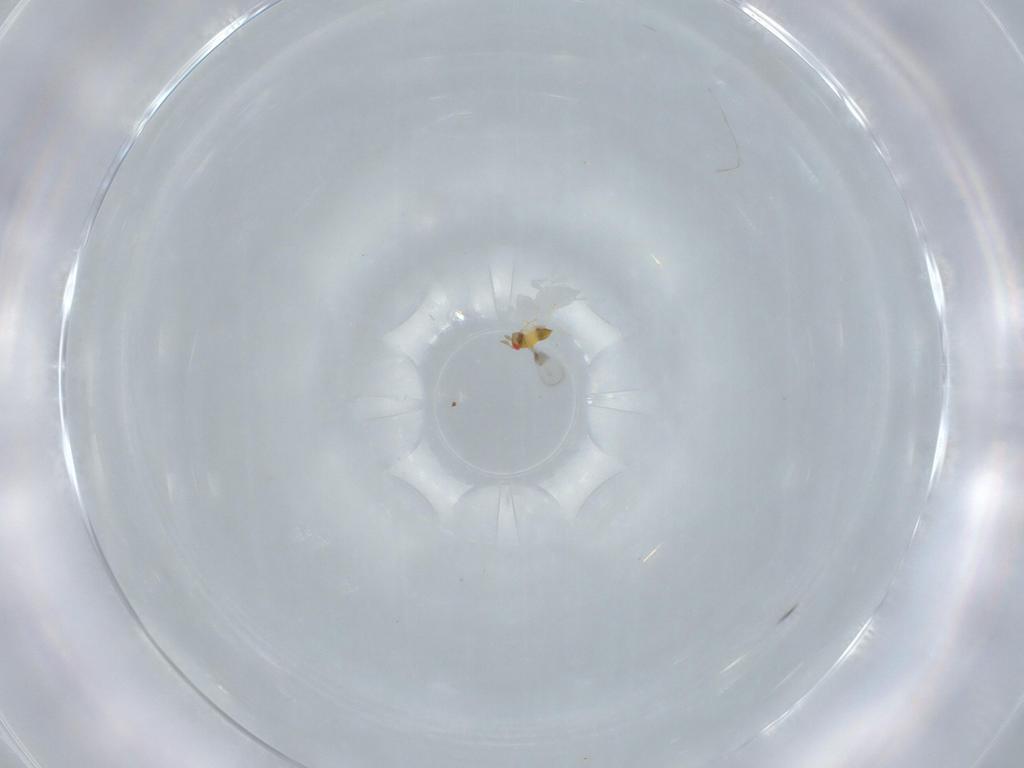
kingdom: Animalia
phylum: Arthropoda
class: Insecta
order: Hymenoptera
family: Trichogrammatidae
